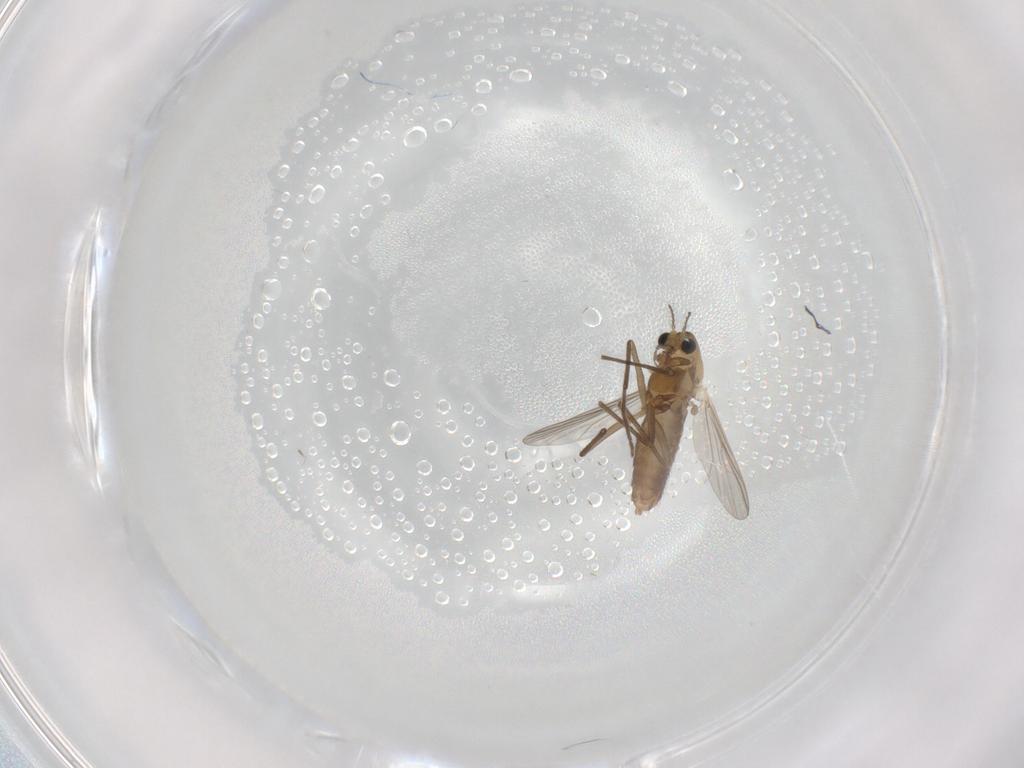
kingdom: Animalia
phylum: Arthropoda
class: Insecta
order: Diptera
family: Chironomidae
